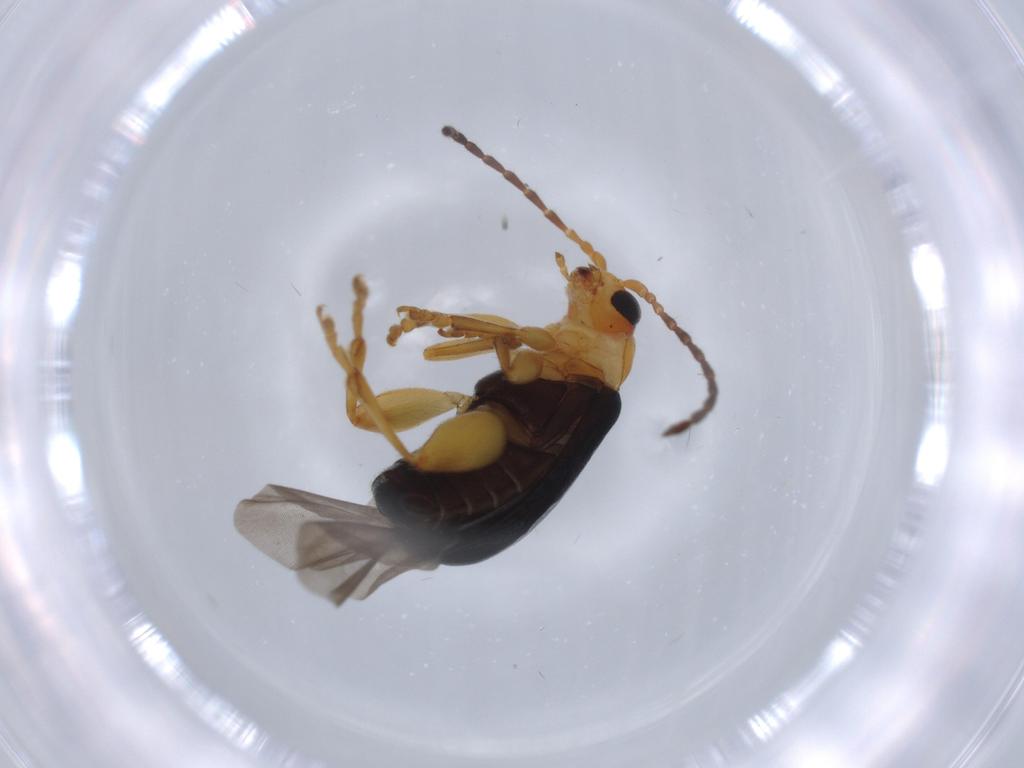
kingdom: Animalia
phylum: Arthropoda
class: Insecta
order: Coleoptera
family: Chrysomelidae
